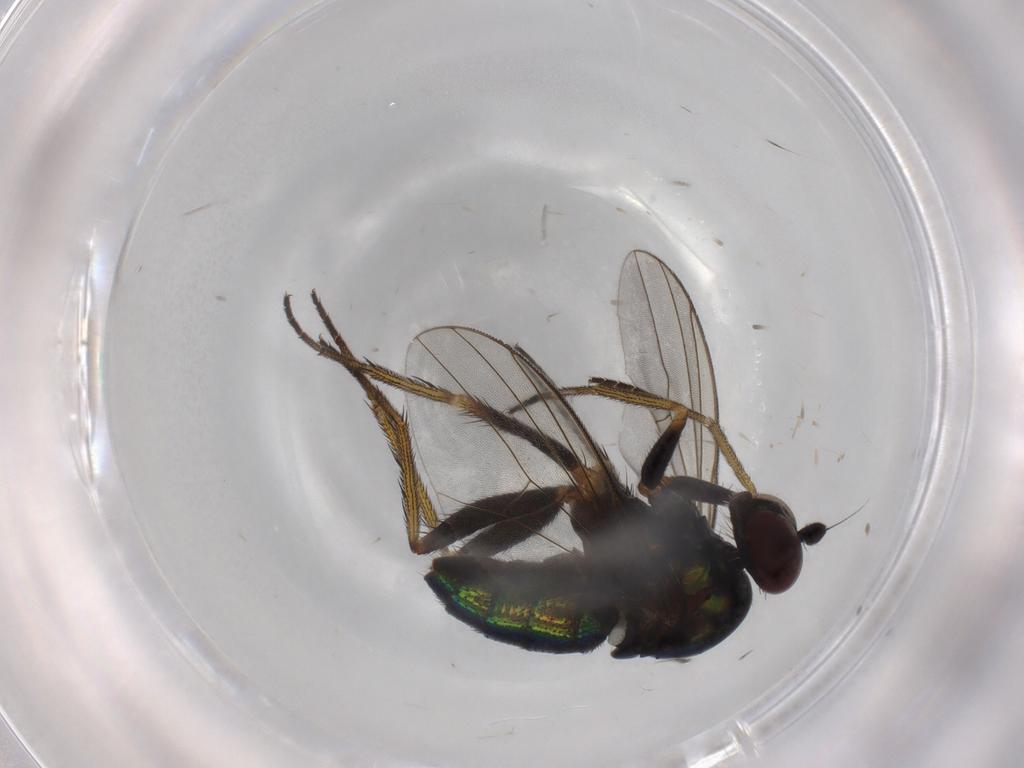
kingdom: Animalia
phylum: Arthropoda
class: Insecta
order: Diptera
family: Dolichopodidae
